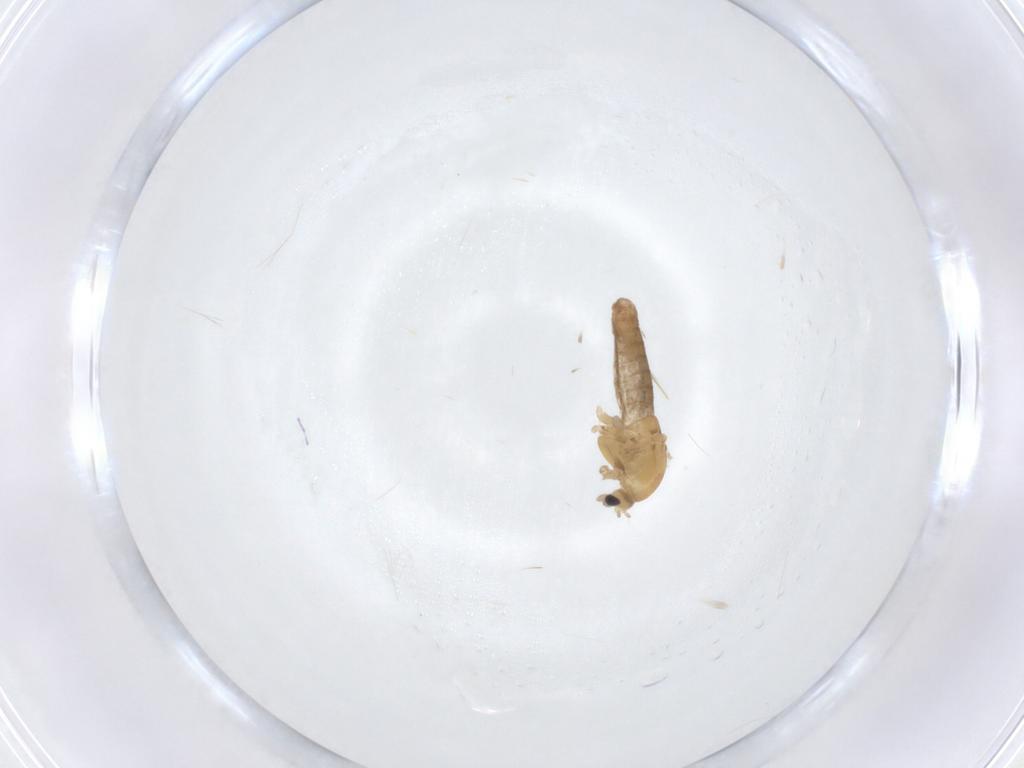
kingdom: Animalia
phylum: Arthropoda
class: Insecta
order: Diptera
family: Chironomidae
